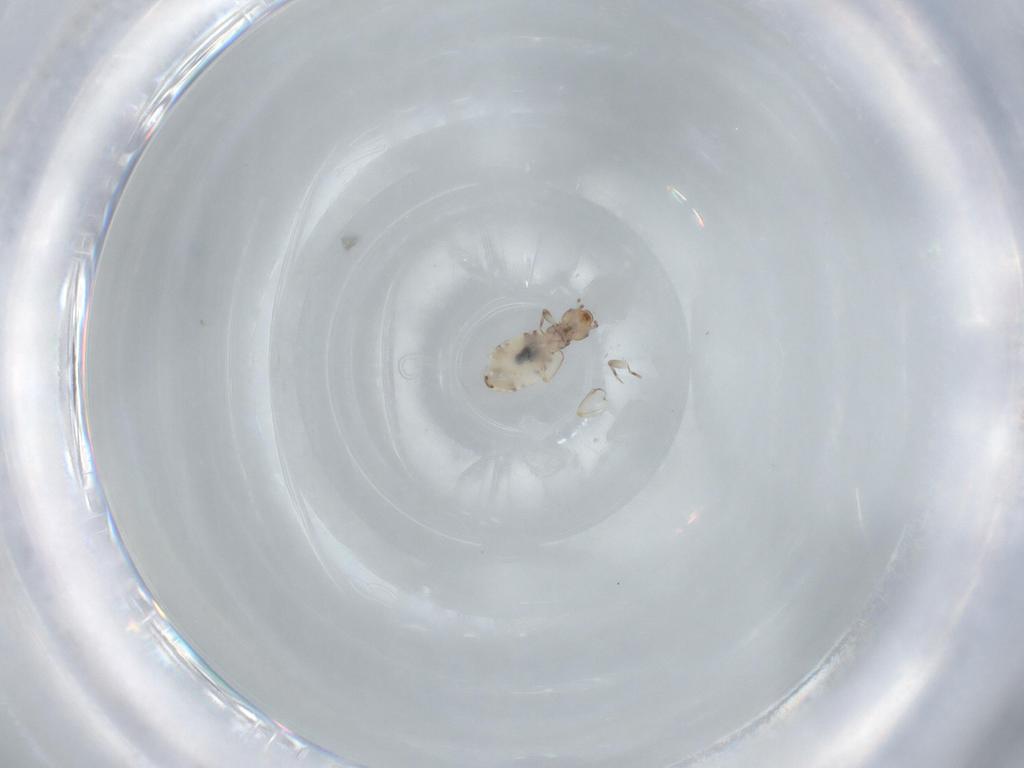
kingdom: Animalia
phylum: Arthropoda
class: Insecta
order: Psocodea
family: Liposcelididae
